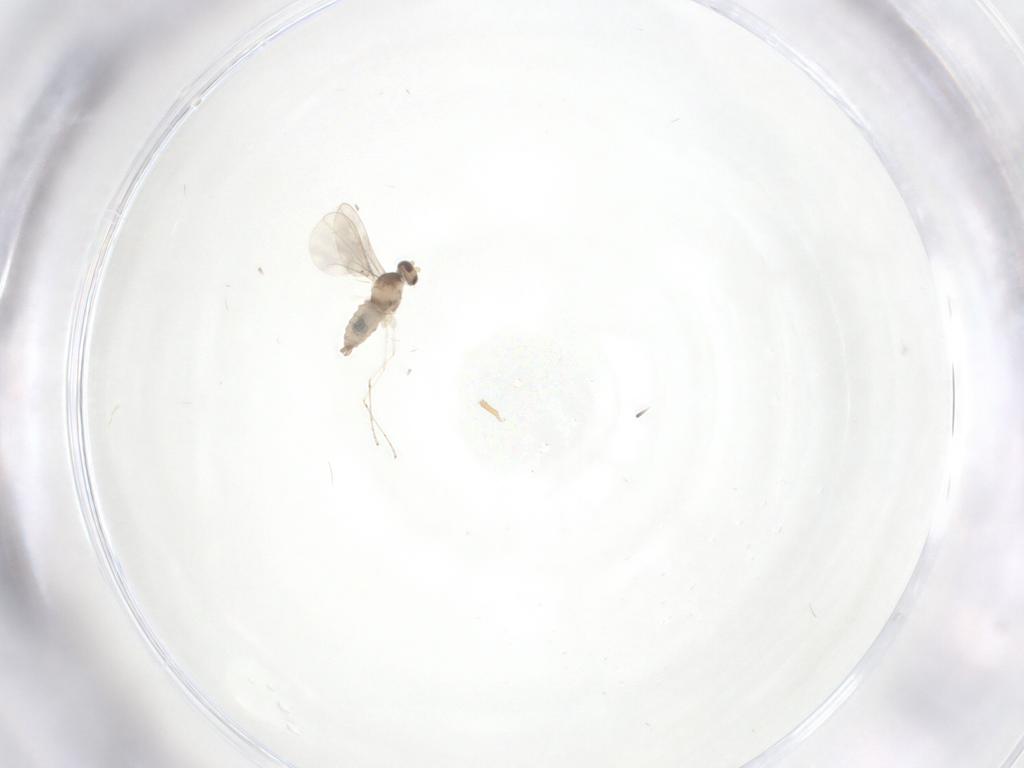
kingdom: Animalia
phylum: Arthropoda
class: Insecta
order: Diptera
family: Cecidomyiidae
